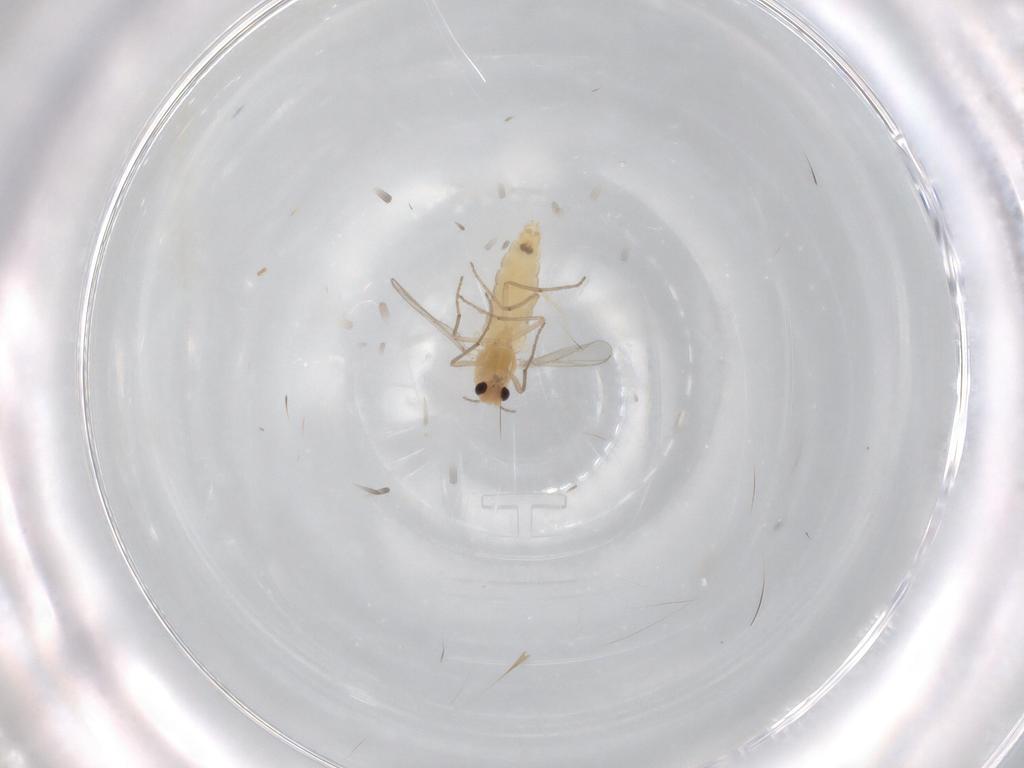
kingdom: Animalia
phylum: Arthropoda
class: Insecta
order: Diptera
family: Chironomidae
